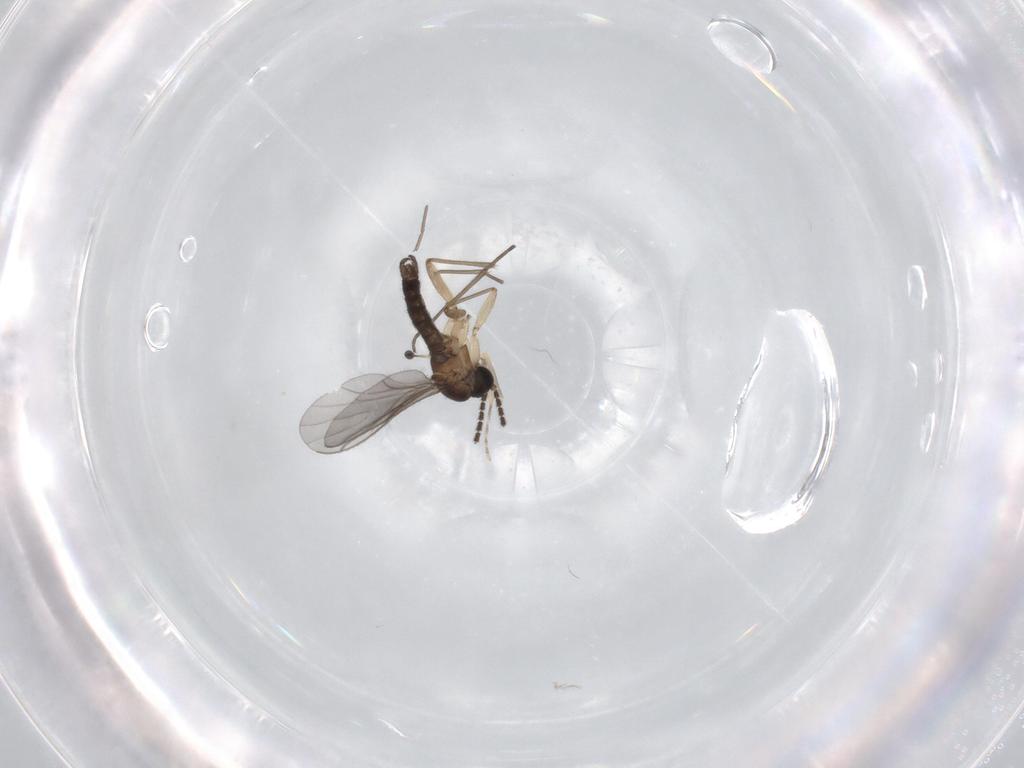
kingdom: Animalia
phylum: Arthropoda
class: Insecta
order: Diptera
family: Sciaridae
